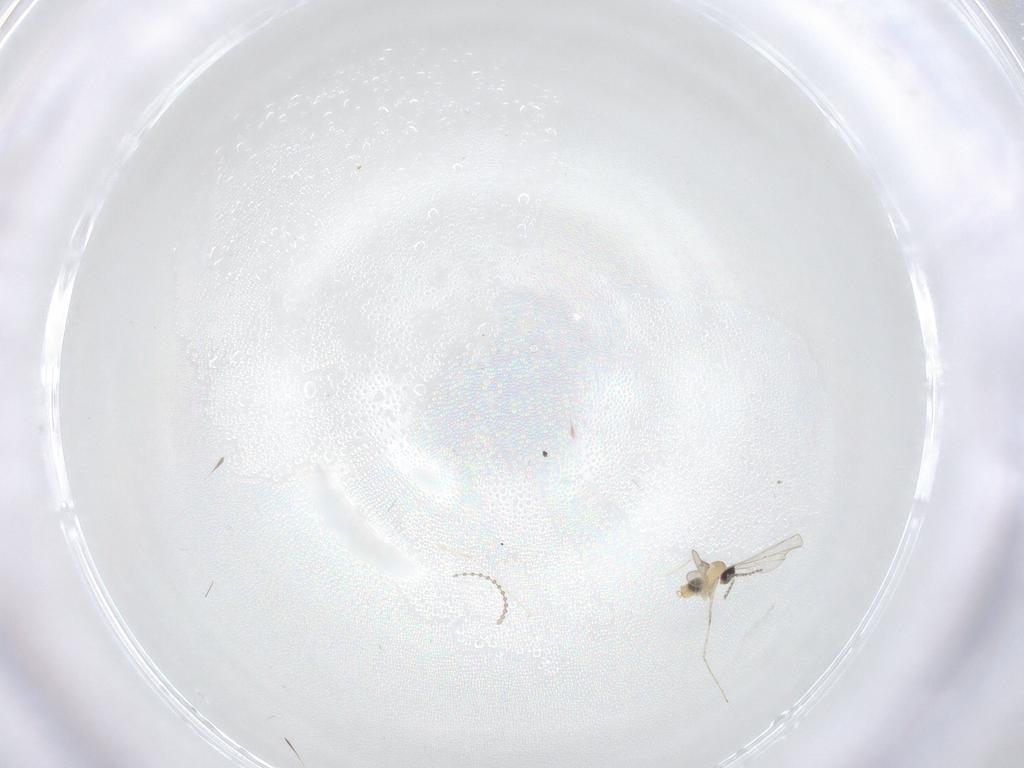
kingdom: Animalia
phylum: Arthropoda
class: Insecta
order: Diptera
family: Cecidomyiidae
